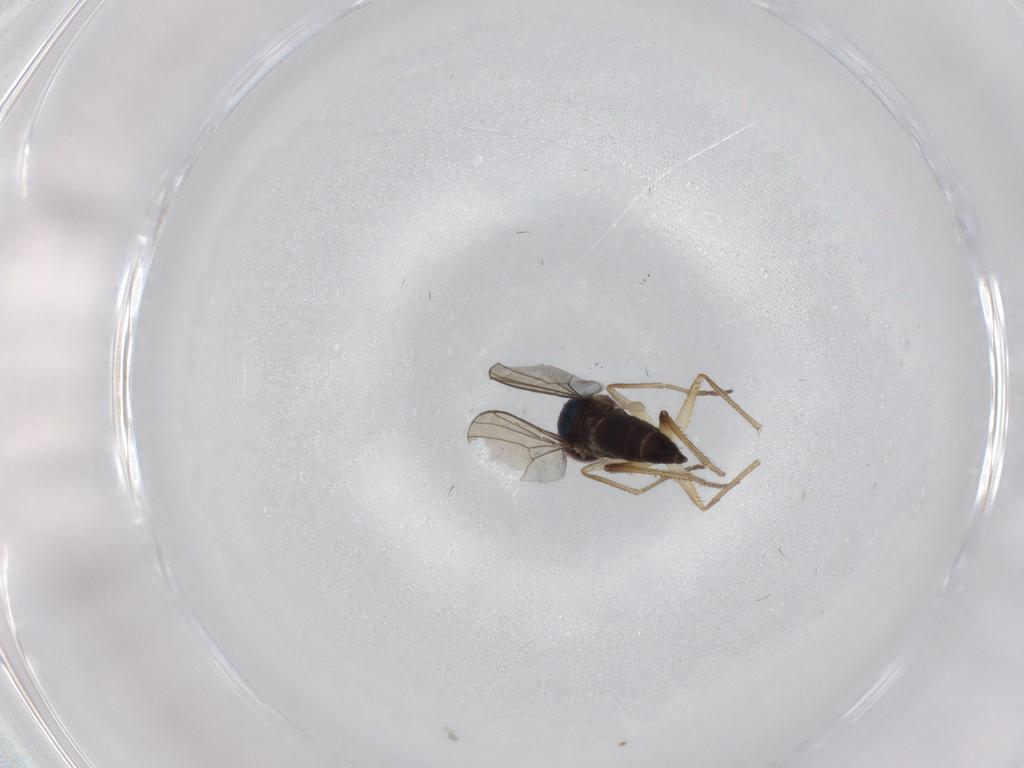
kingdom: Animalia
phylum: Arthropoda
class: Insecta
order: Diptera
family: Dolichopodidae
